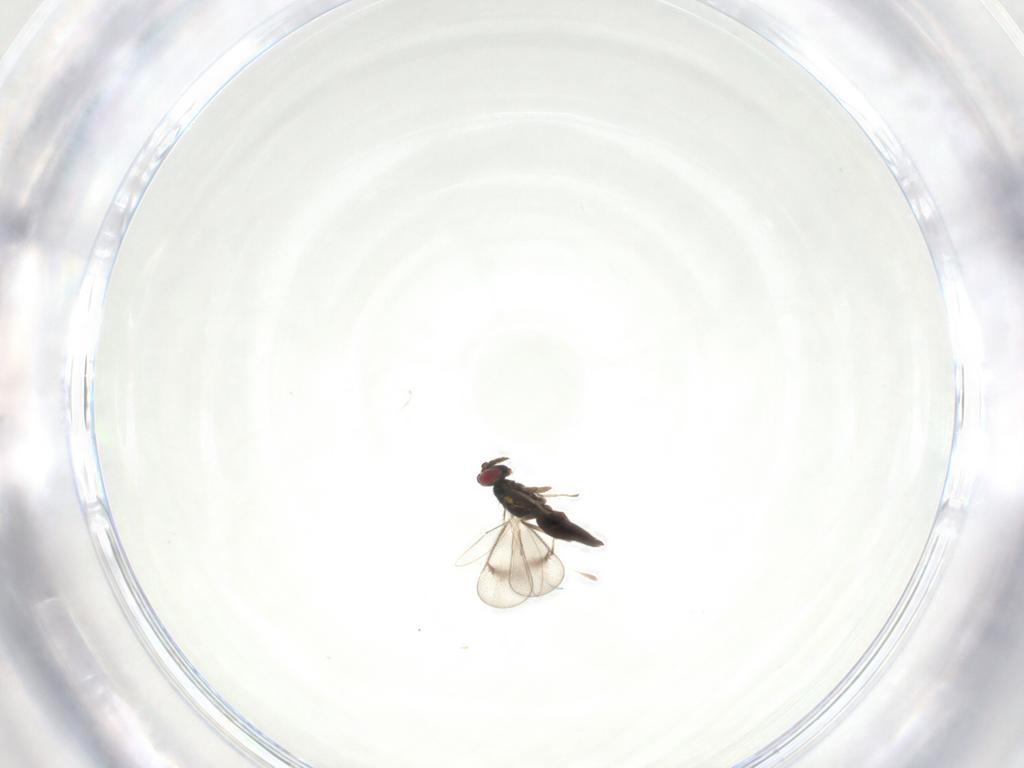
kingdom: Animalia
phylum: Arthropoda
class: Insecta
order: Hymenoptera
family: Eulophidae
